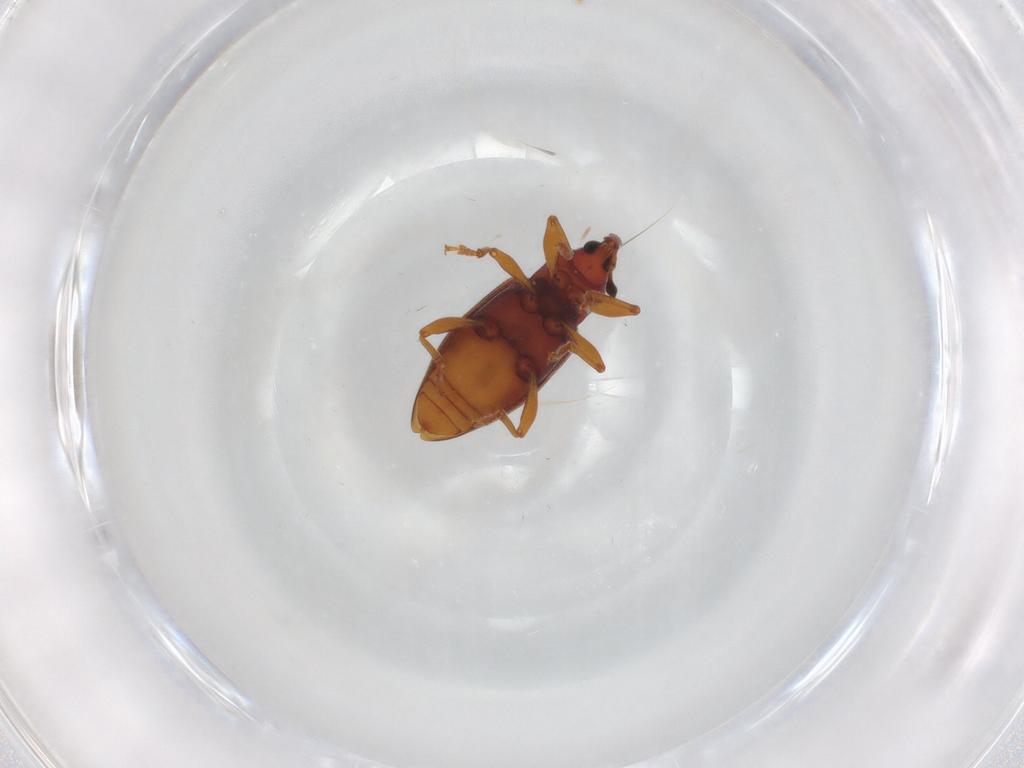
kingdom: Animalia
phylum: Arthropoda
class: Insecta
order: Coleoptera
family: Curculionidae
